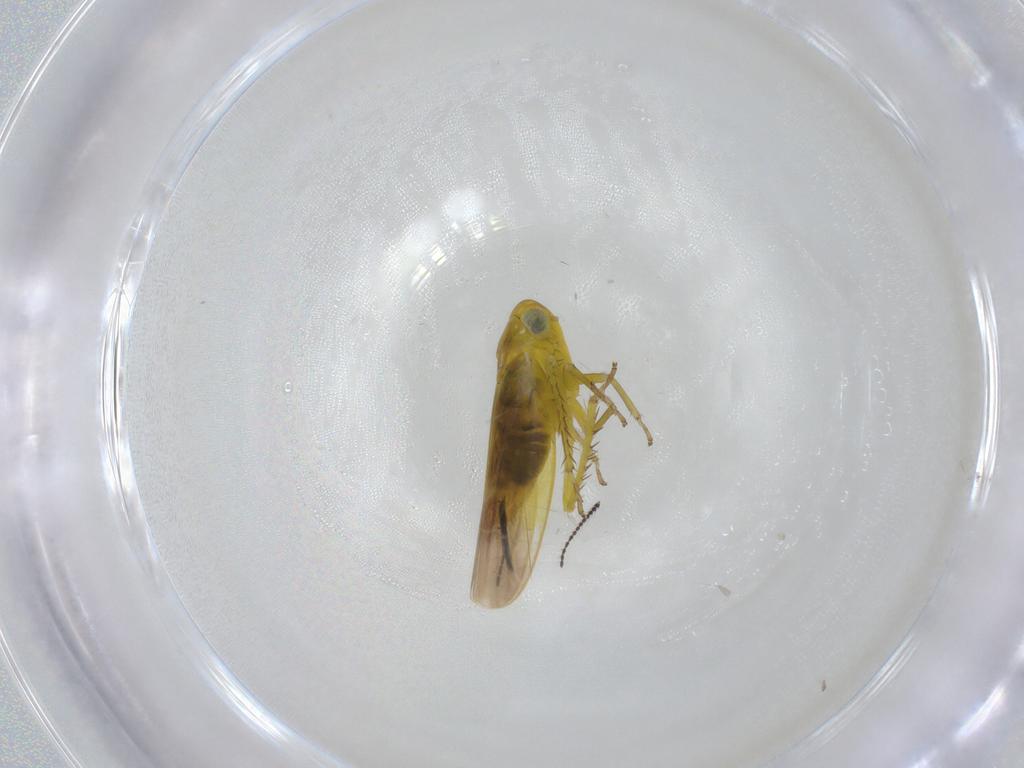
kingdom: Animalia
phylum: Arthropoda
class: Insecta
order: Hemiptera
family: Cicadellidae
